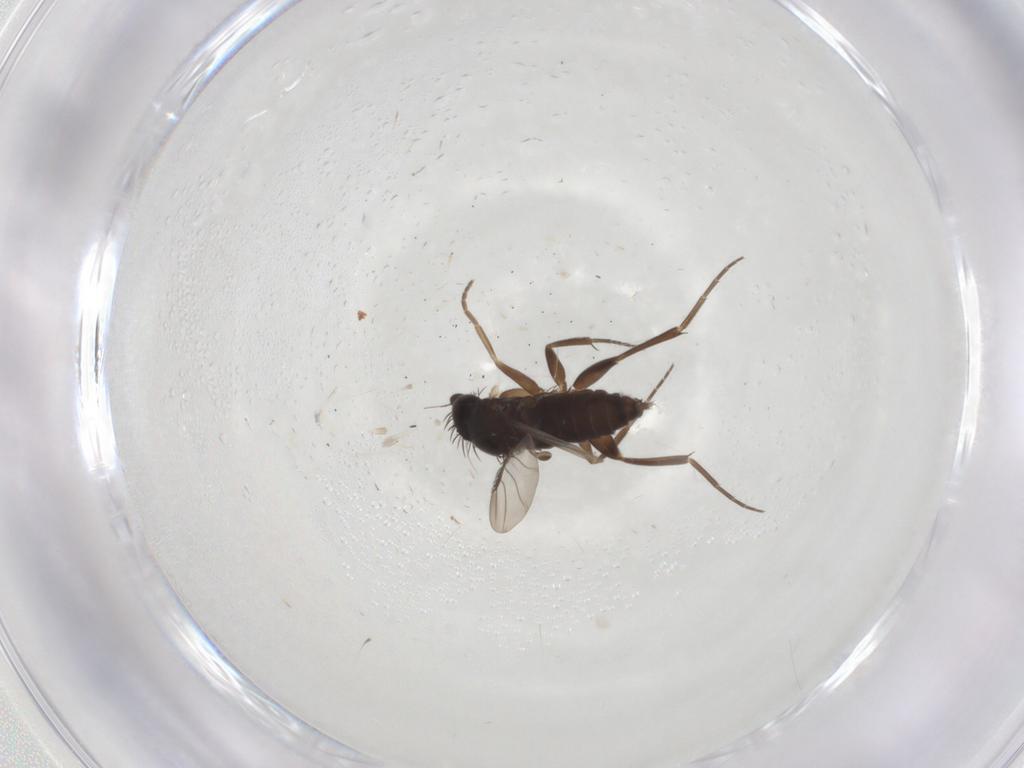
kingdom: Animalia
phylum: Arthropoda
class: Insecta
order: Diptera
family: Phoridae
